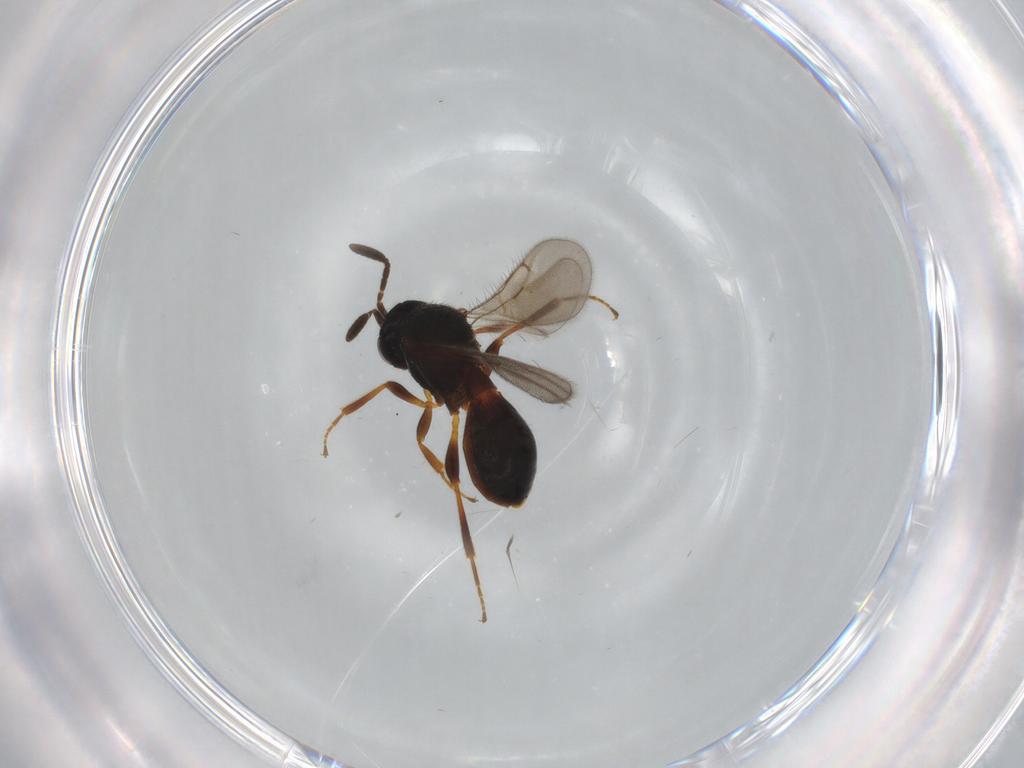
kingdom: Animalia
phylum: Arthropoda
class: Insecta
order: Hymenoptera
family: Formicidae
